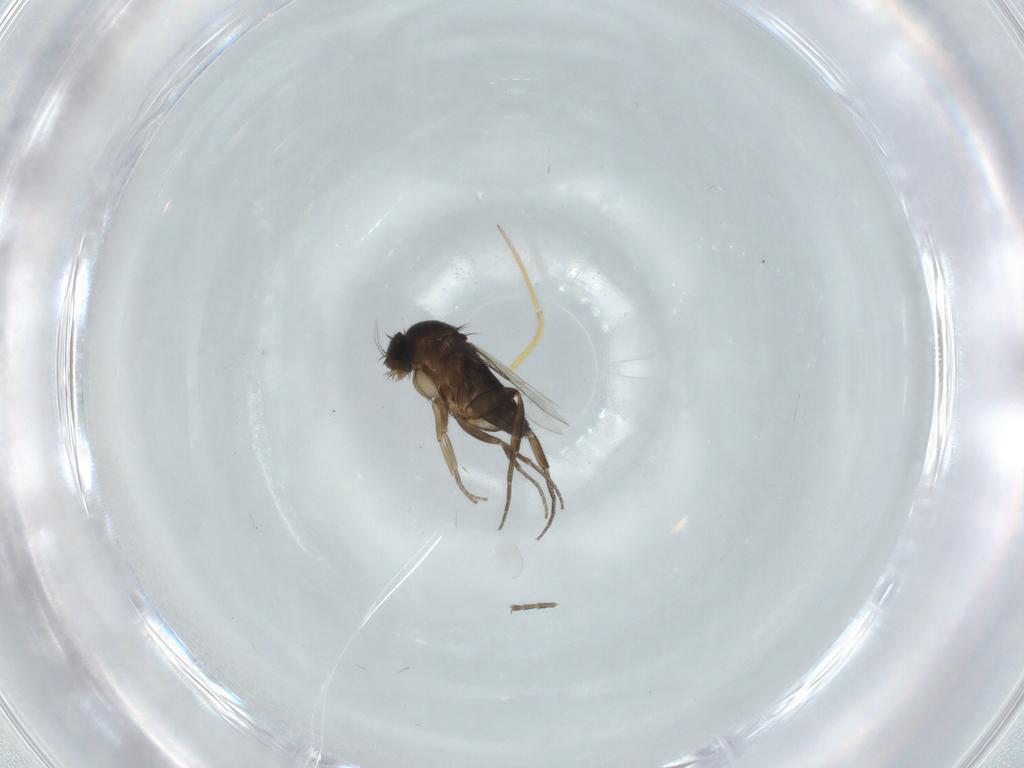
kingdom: Animalia
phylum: Arthropoda
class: Insecta
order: Diptera
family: Phoridae
